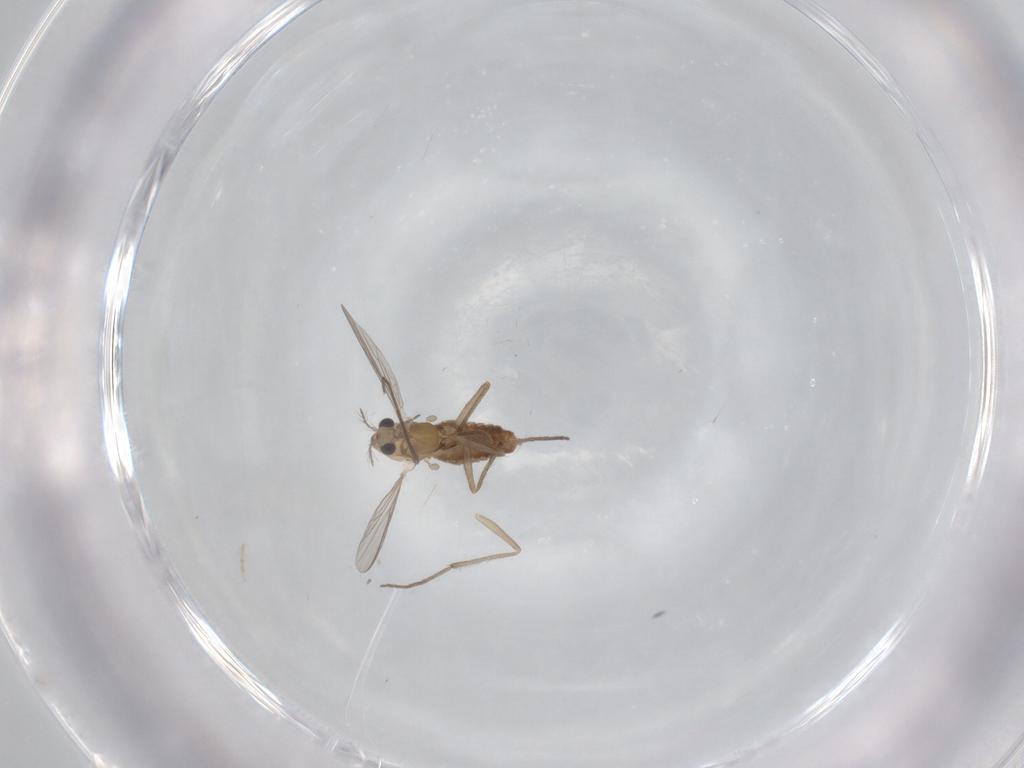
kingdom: Animalia
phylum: Arthropoda
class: Insecta
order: Diptera
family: Chironomidae
